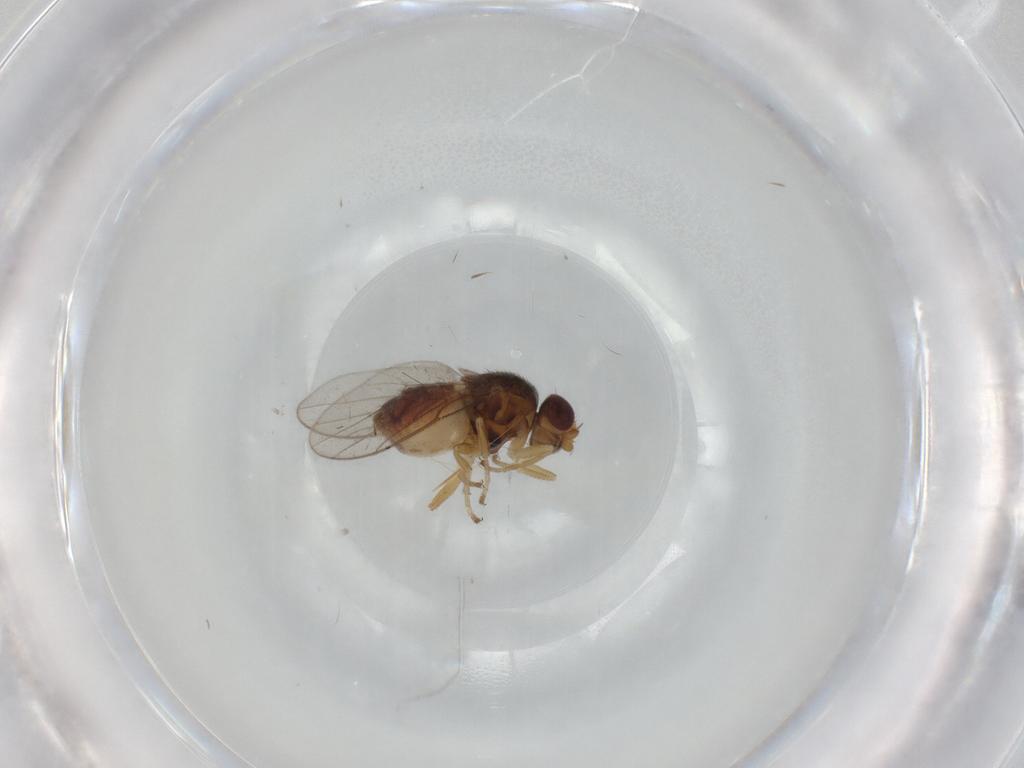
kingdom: Animalia
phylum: Arthropoda
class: Insecta
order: Diptera
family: Chloropidae
